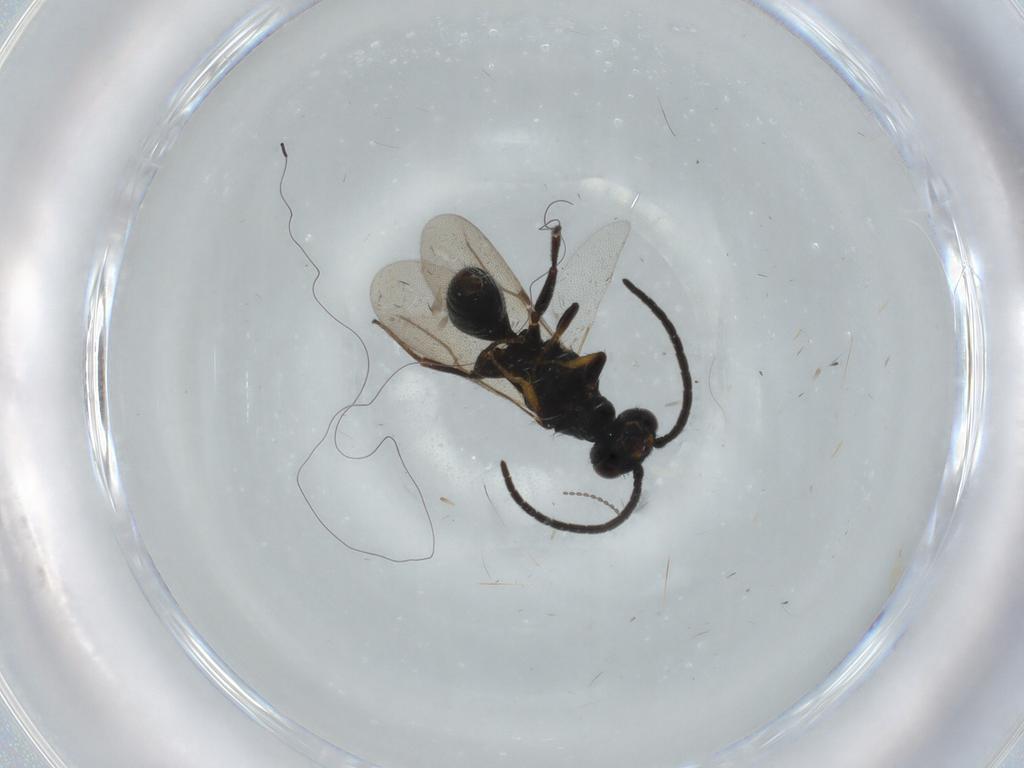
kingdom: Animalia
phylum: Arthropoda
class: Insecta
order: Hymenoptera
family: Bethylidae
